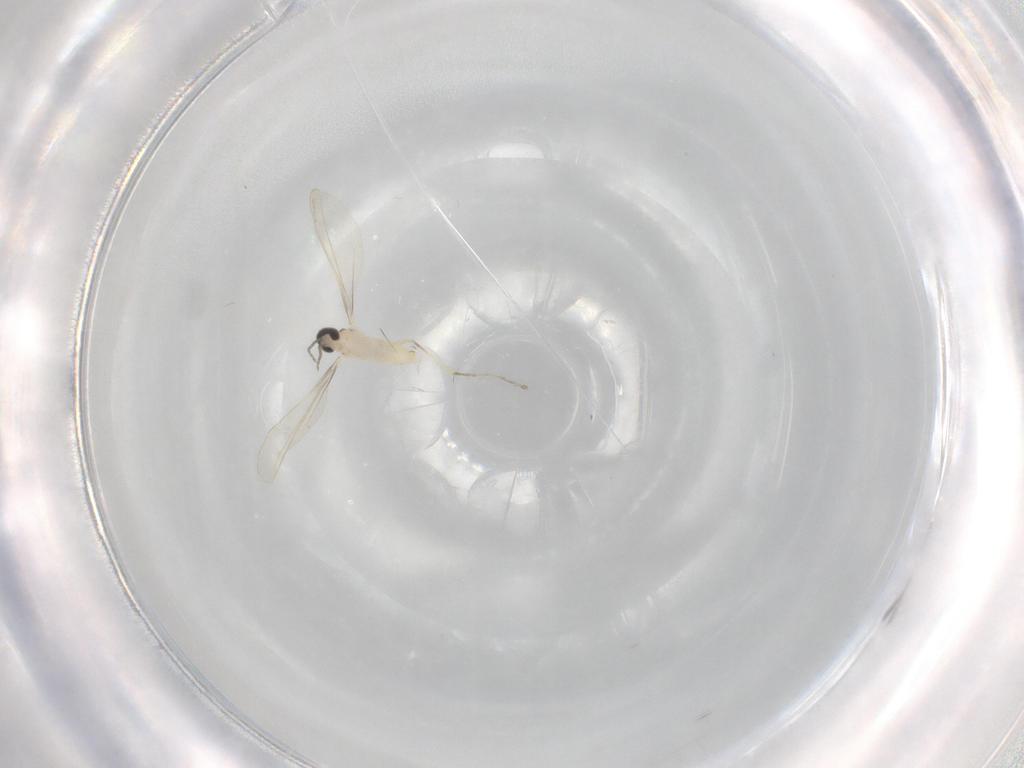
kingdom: Animalia
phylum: Arthropoda
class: Insecta
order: Diptera
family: Cecidomyiidae
